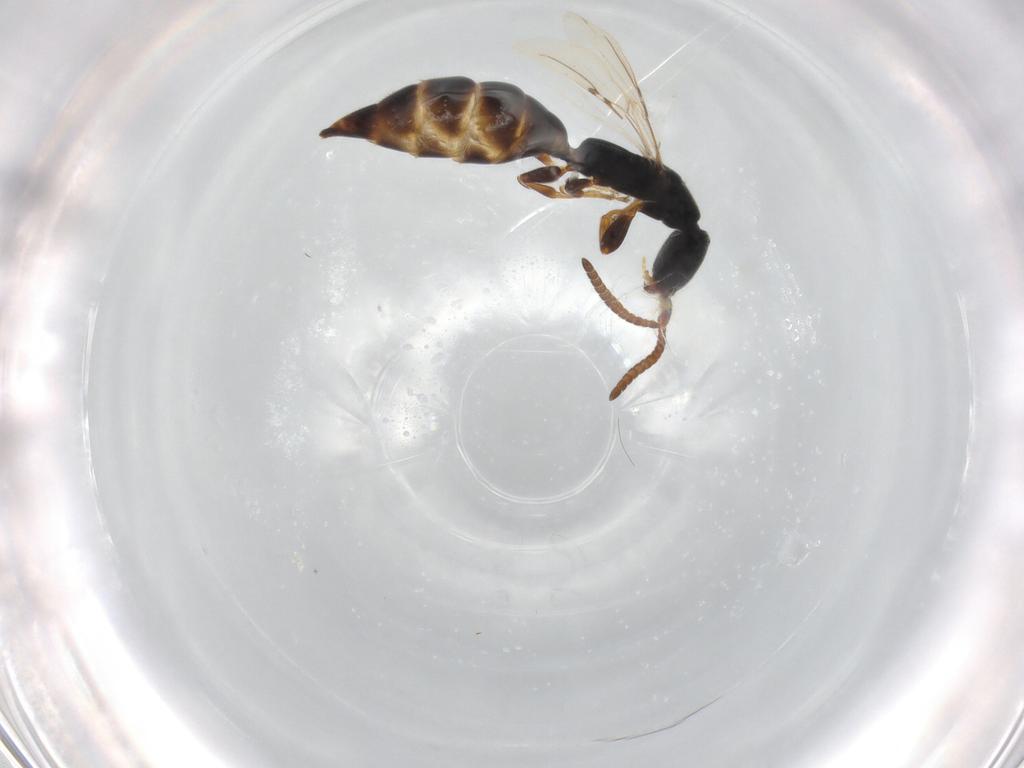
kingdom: Animalia
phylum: Arthropoda
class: Insecta
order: Hymenoptera
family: Bethylidae
